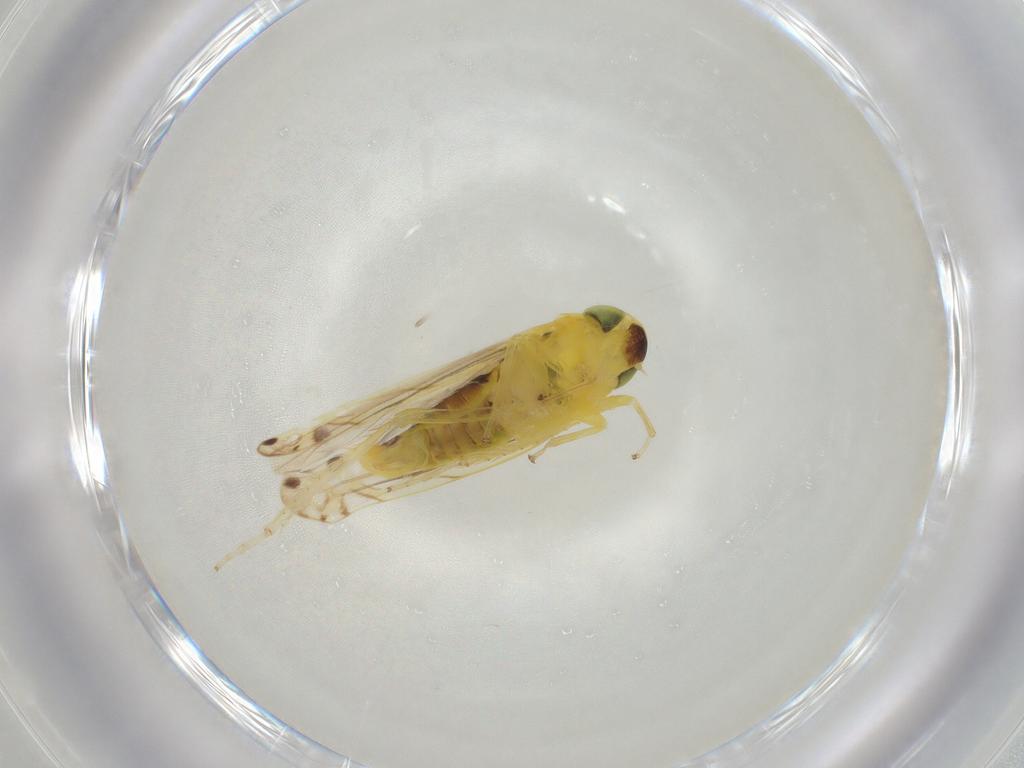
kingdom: Animalia
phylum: Arthropoda
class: Insecta
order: Hemiptera
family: Cicadellidae
